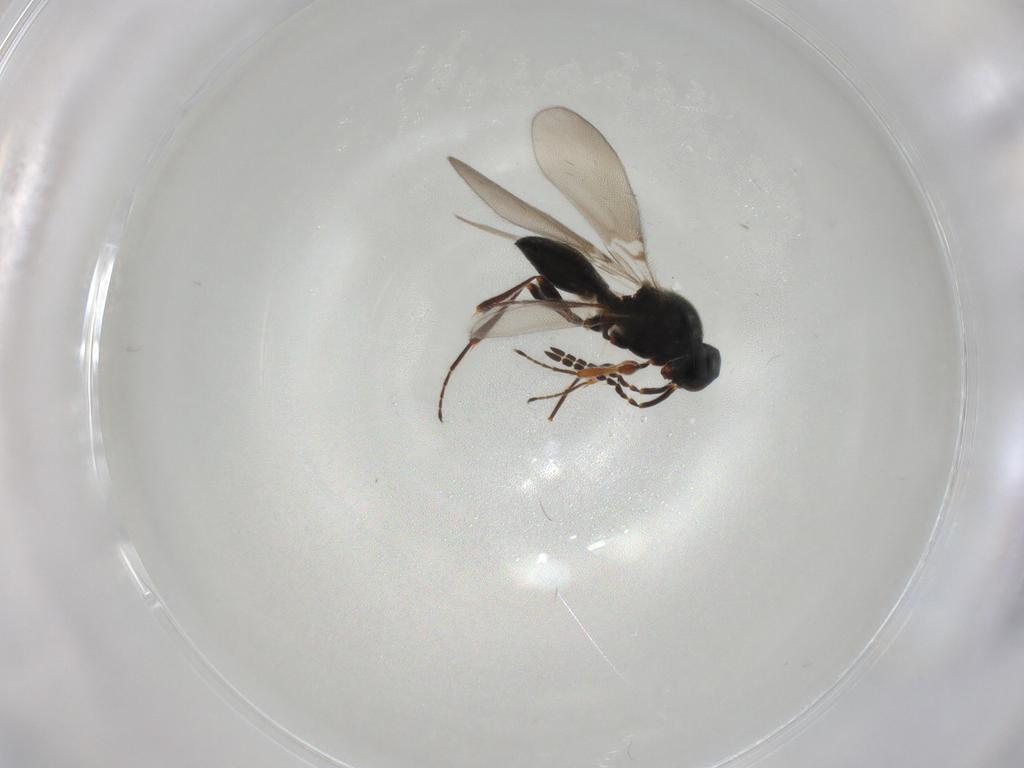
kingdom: Animalia
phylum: Arthropoda
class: Insecta
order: Hymenoptera
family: Platygastridae
